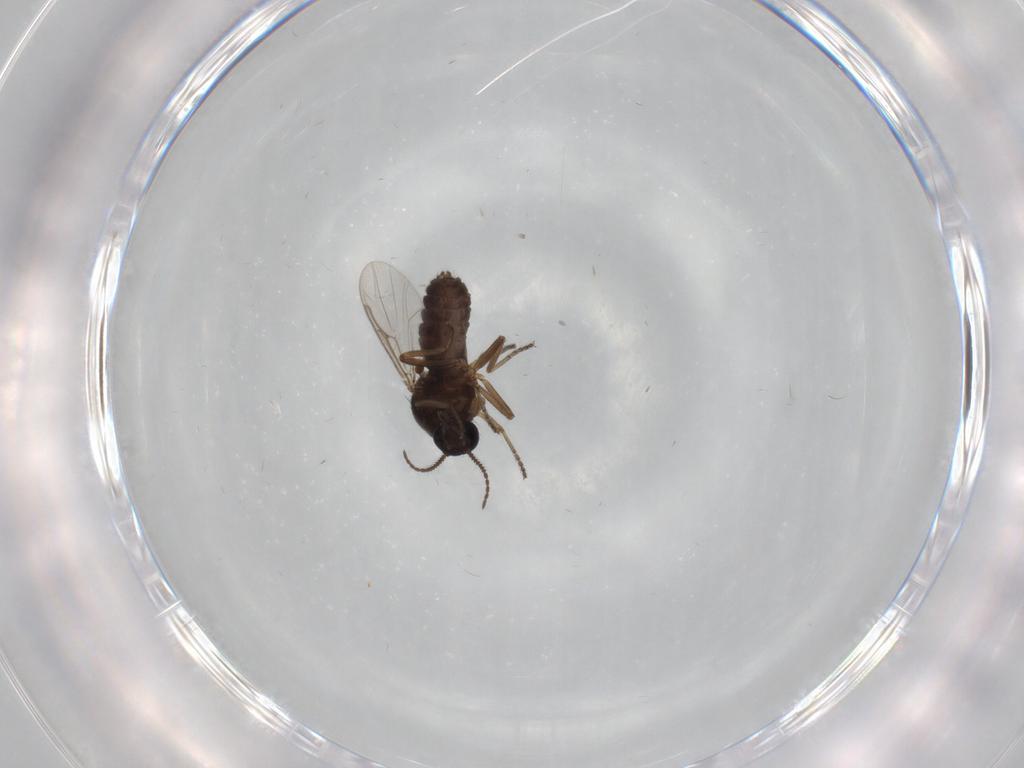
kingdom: Animalia
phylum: Arthropoda
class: Insecta
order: Diptera
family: Ceratopogonidae
